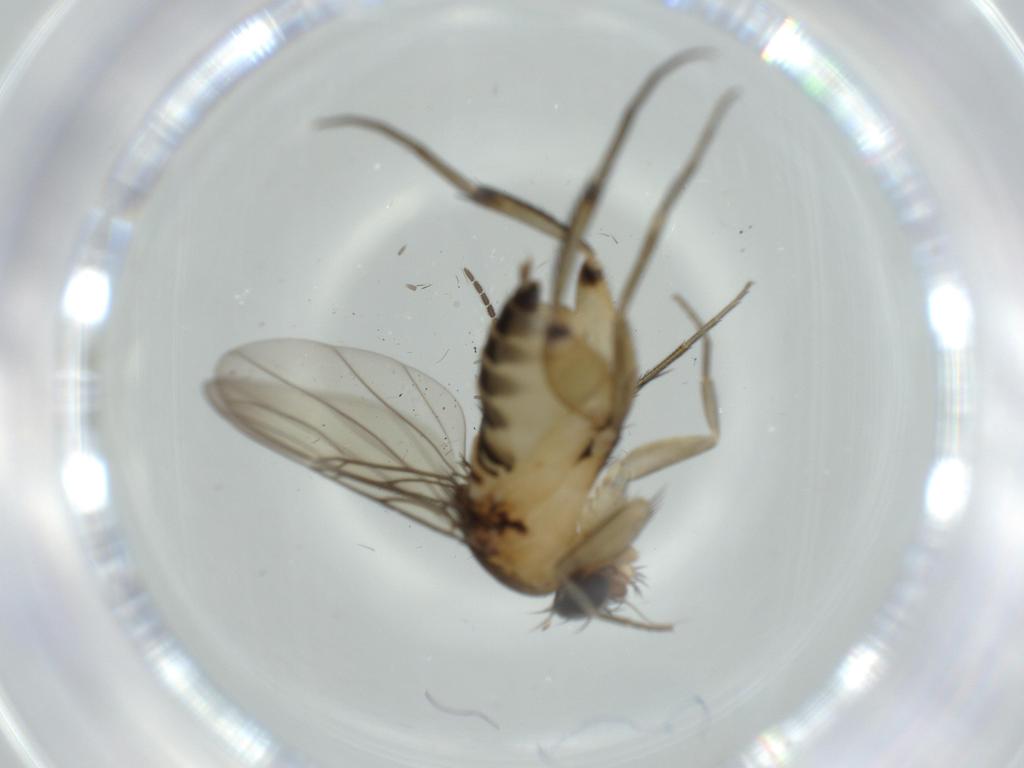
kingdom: Animalia
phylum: Arthropoda
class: Insecta
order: Diptera
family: Phoridae
